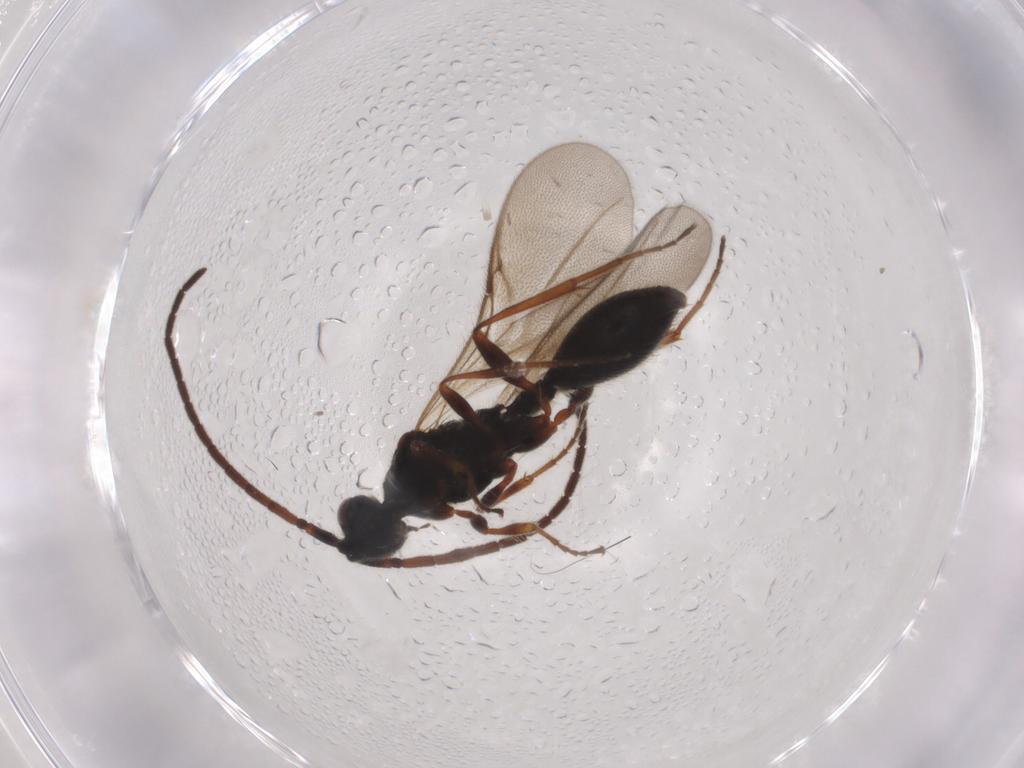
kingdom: Animalia
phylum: Arthropoda
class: Insecta
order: Hymenoptera
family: Diapriidae
